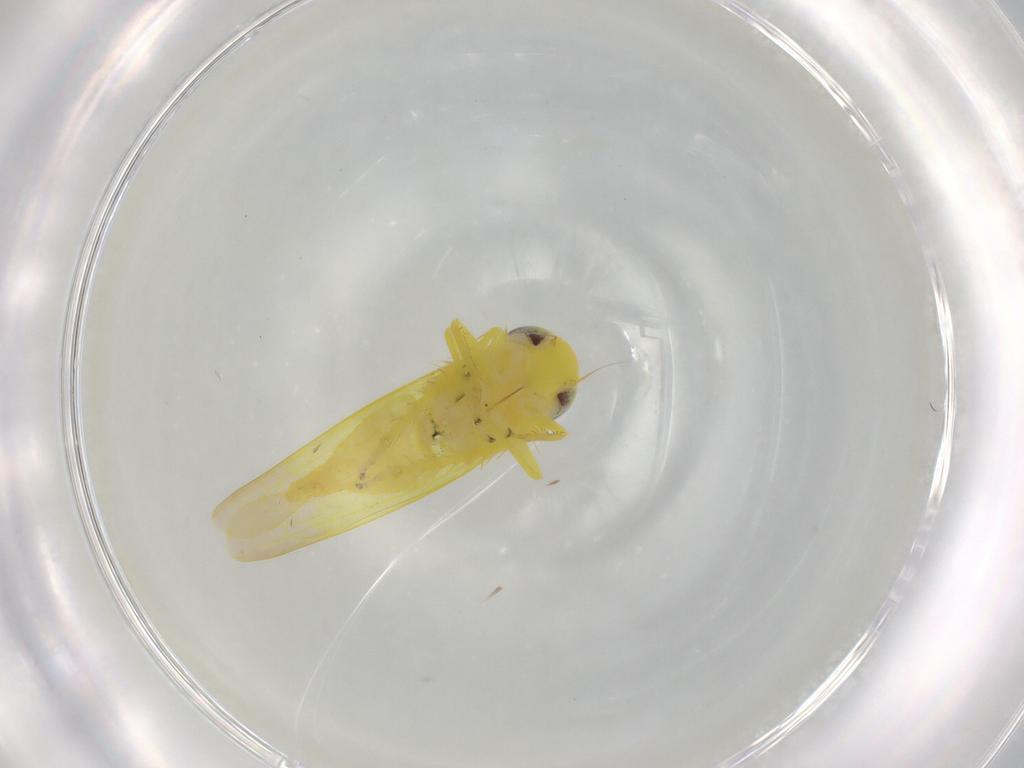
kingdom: Animalia
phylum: Arthropoda
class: Insecta
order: Hemiptera
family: Cicadellidae
